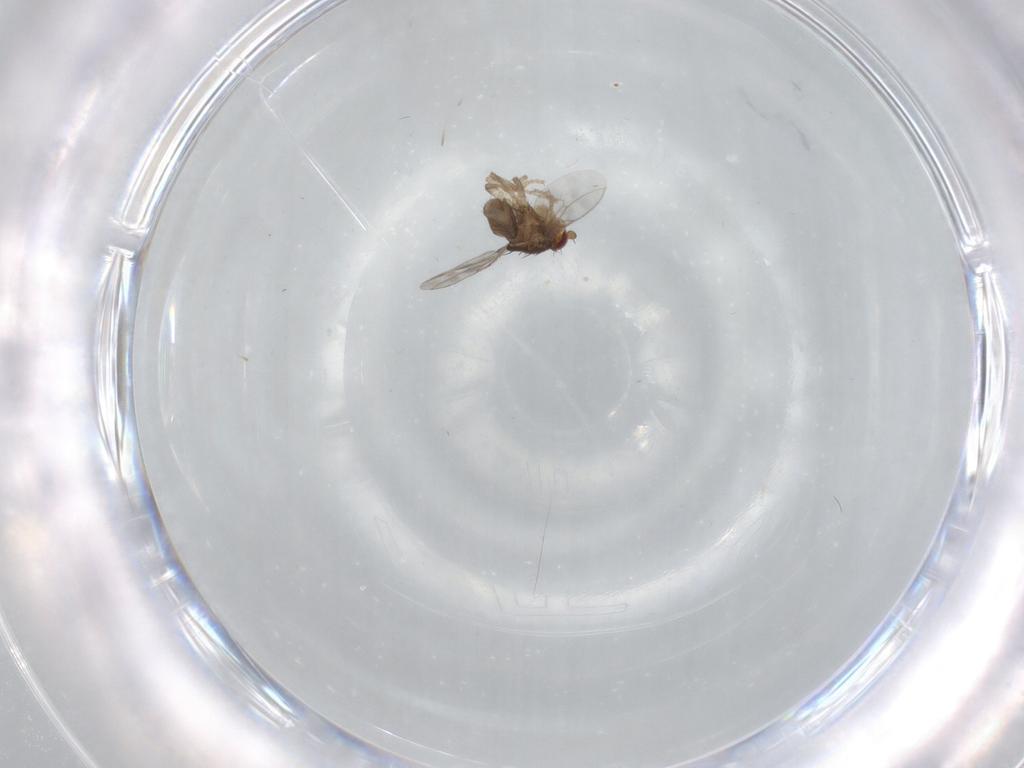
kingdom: Animalia
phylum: Arthropoda
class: Insecta
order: Diptera
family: Sphaeroceridae
